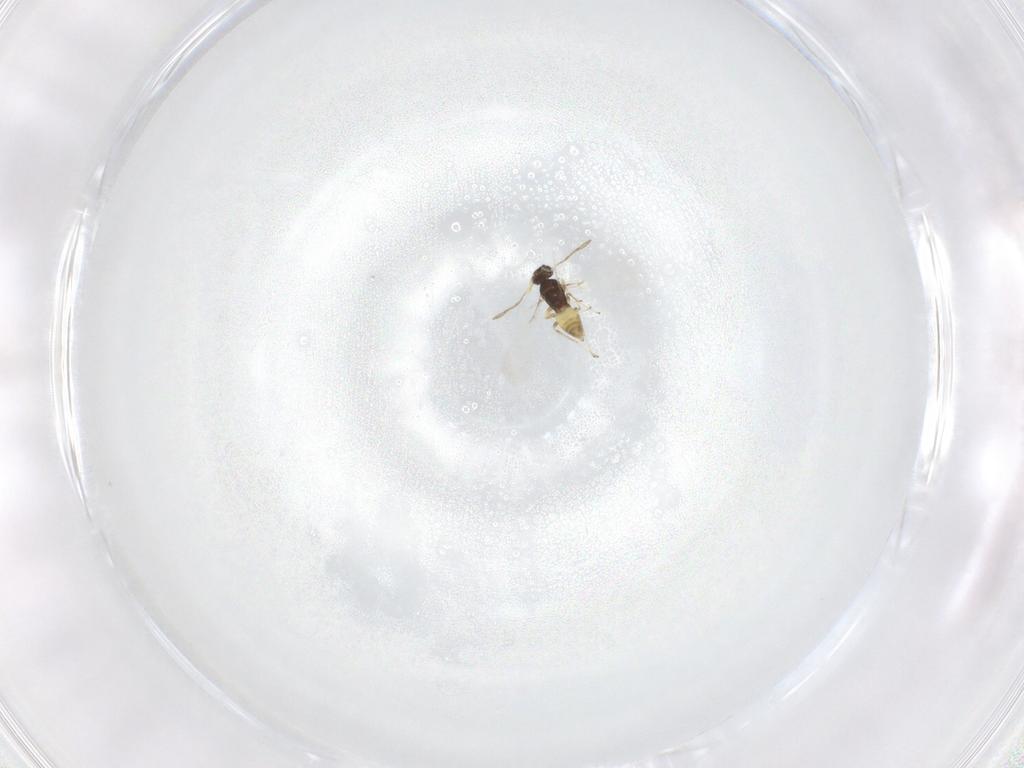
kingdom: Animalia
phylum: Arthropoda
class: Insecta
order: Hymenoptera
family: Mymaridae
